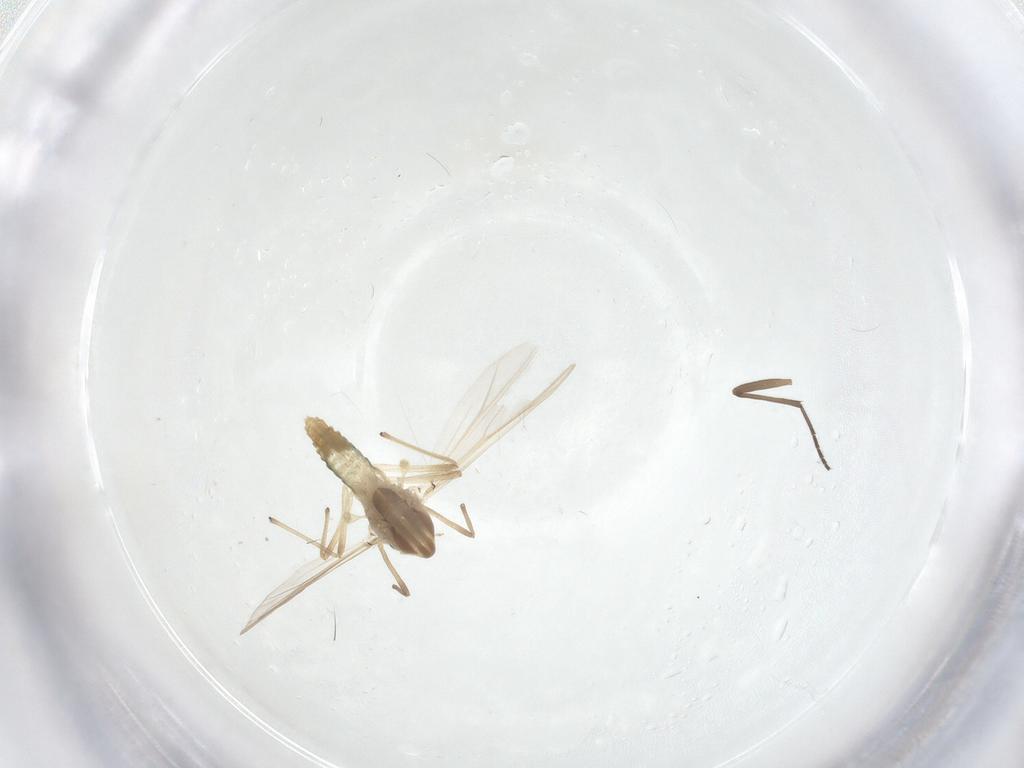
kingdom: Animalia
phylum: Arthropoda
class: Insecta
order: Diptera
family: Chironomidae
